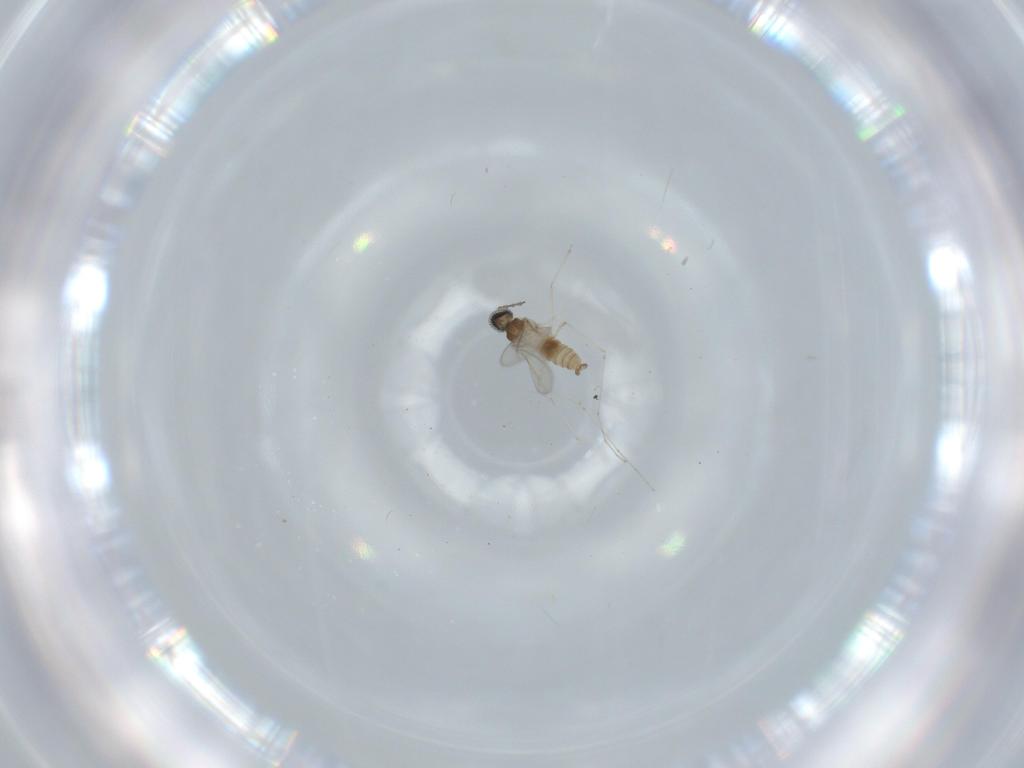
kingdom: Animalia
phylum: Arthropoda
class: Insecta
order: Diptera
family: Cecidomyiidae
